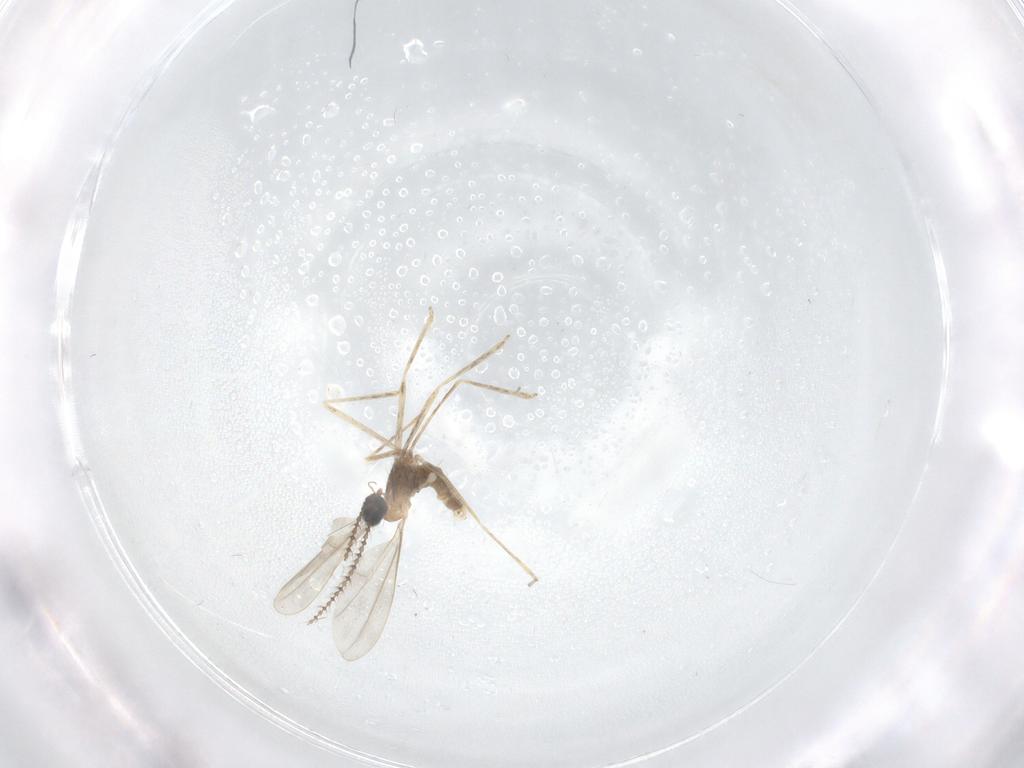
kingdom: Animalia
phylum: Arthropoda
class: Insecta
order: Diptera
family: Cecidomyiidae
